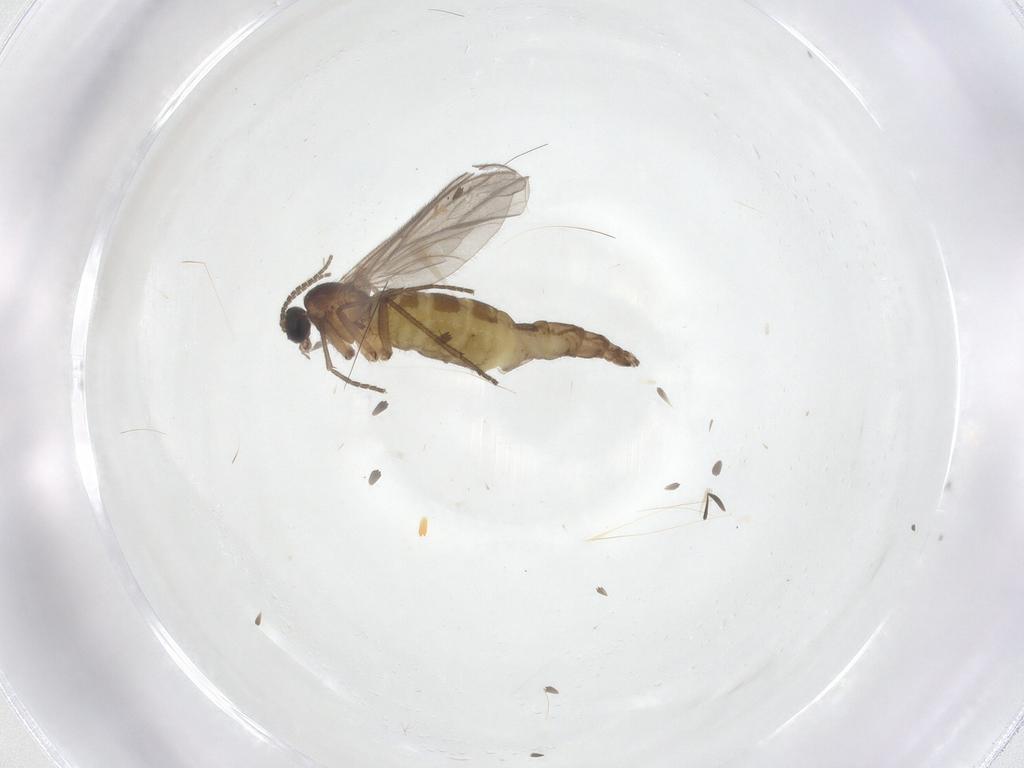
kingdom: Animalia
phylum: Arthropoda
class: Insecta
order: Diptera
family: Sciaridae
